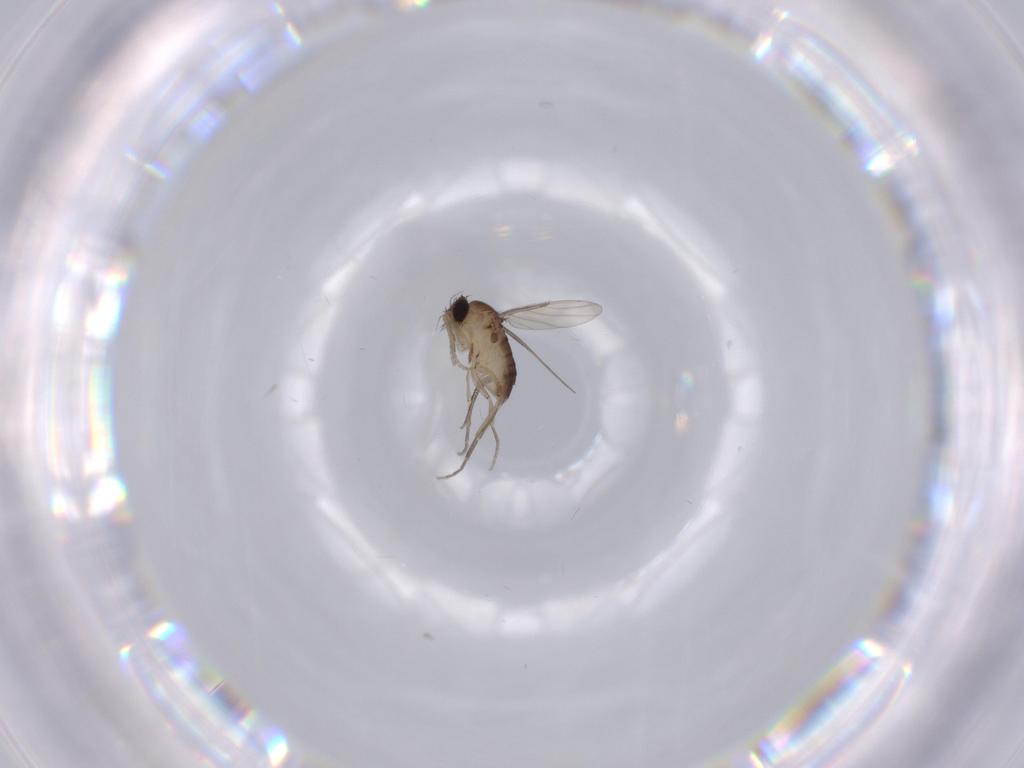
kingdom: Animalia
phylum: Arthropoda
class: Insecta
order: Diptera
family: Phoridae
